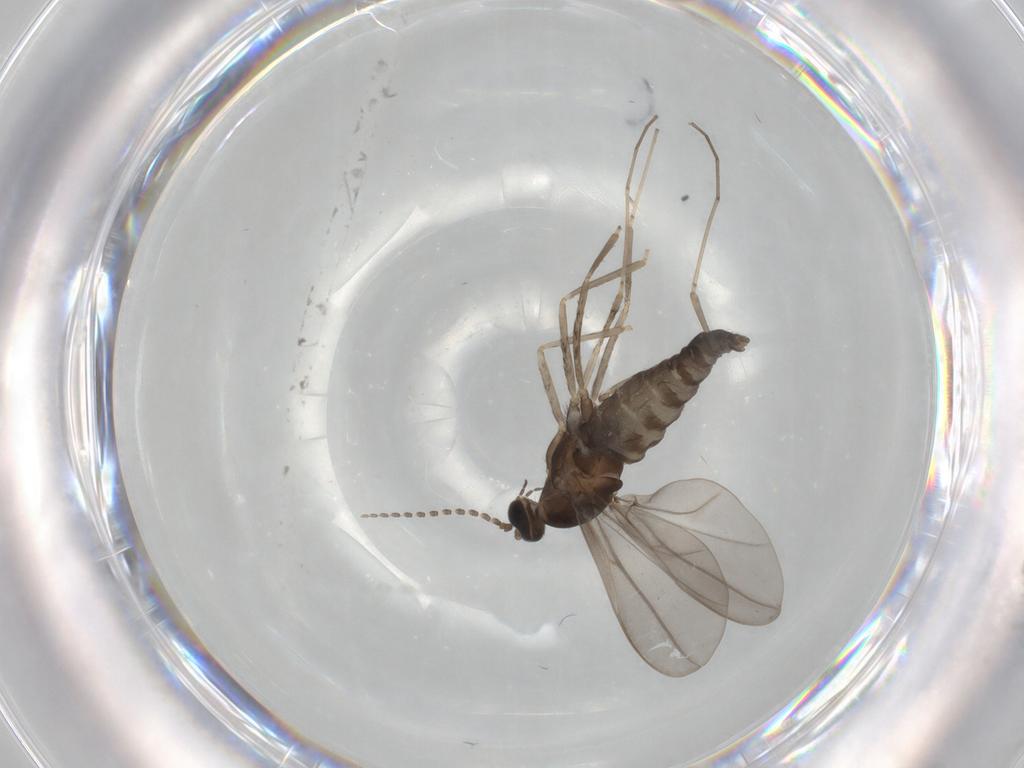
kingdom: Animalia
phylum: Arthropoda
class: Insecta
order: Diptera
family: Cecidomyiidae
